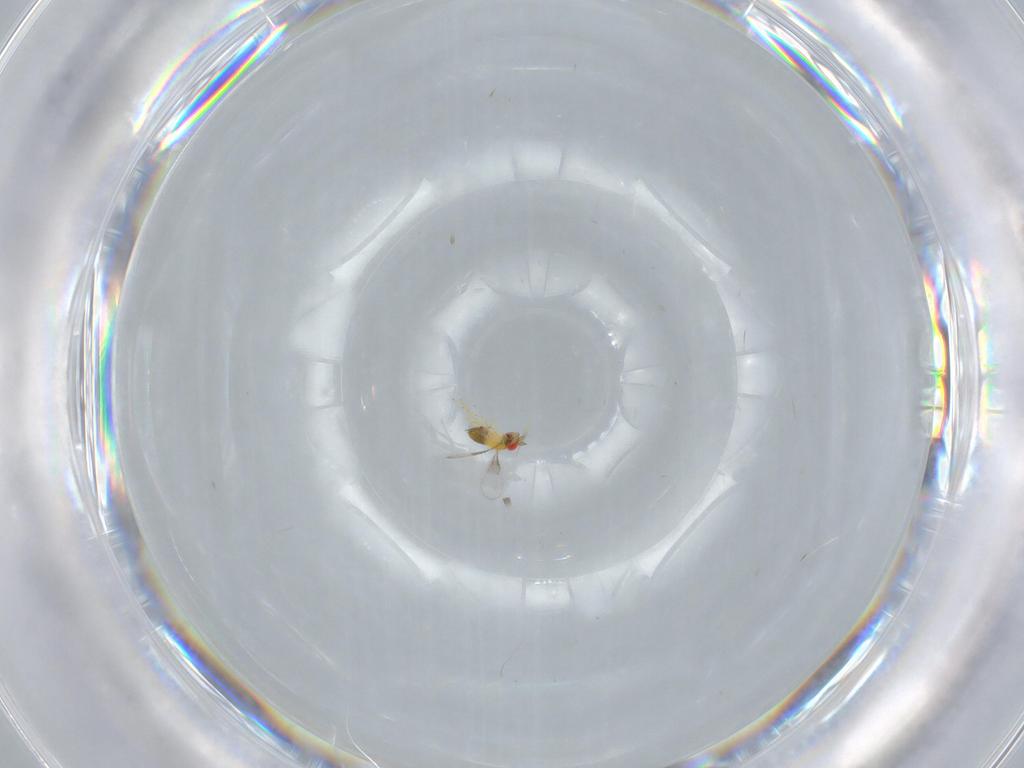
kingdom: Animalia
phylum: Arthropoda
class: Insecta
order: Hymenoptera
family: Trichogrammatidae
